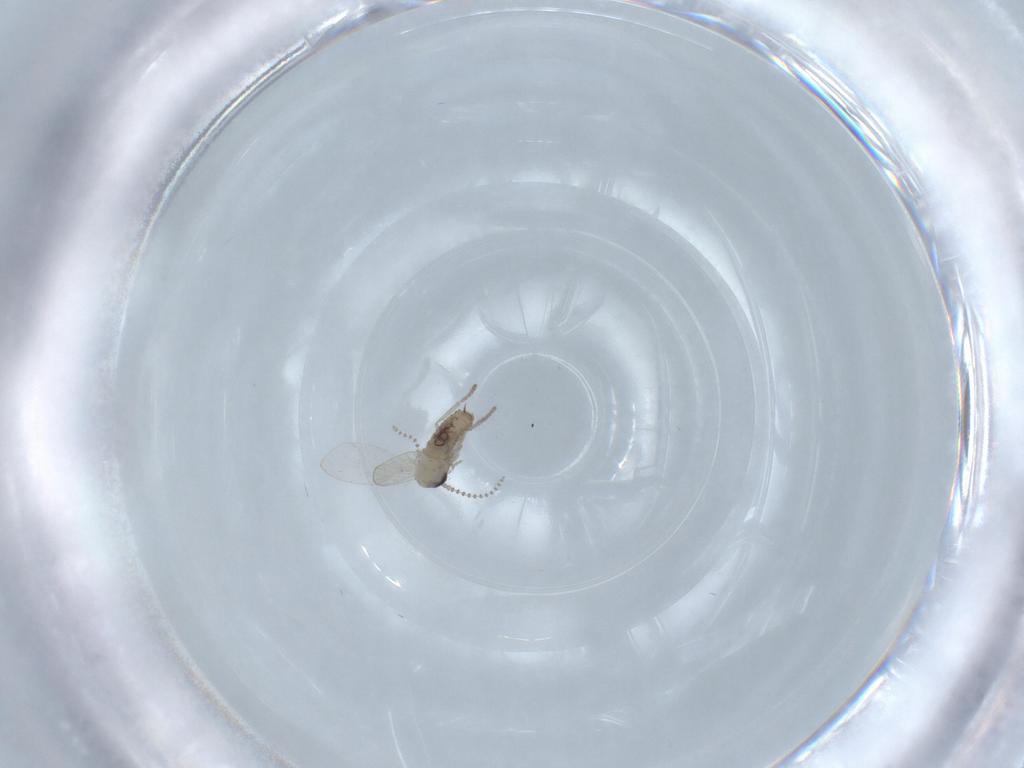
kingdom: Animalia
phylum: Arthropoda
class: Insecta
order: Diptera
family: Psychodidae
